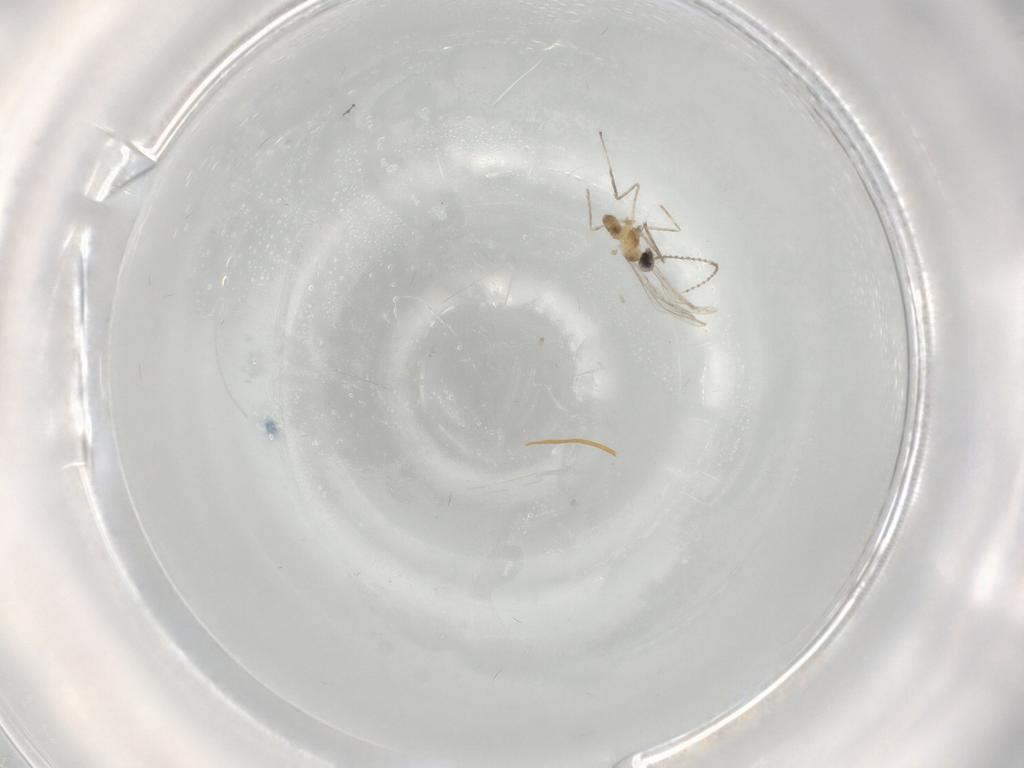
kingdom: Animalia
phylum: Arthropoda
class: Insecta
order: Diptera
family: Cecidomyiidae
